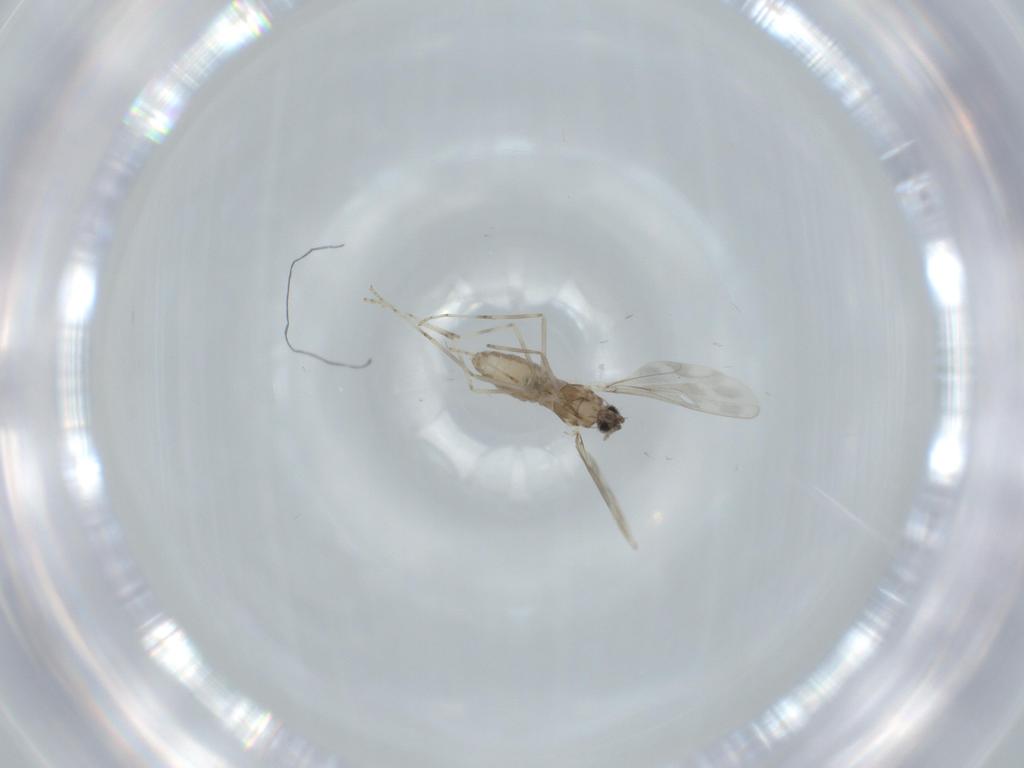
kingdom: Animalia
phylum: Arthropoda
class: Insecta
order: Diptera
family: Cecidomyiidae
